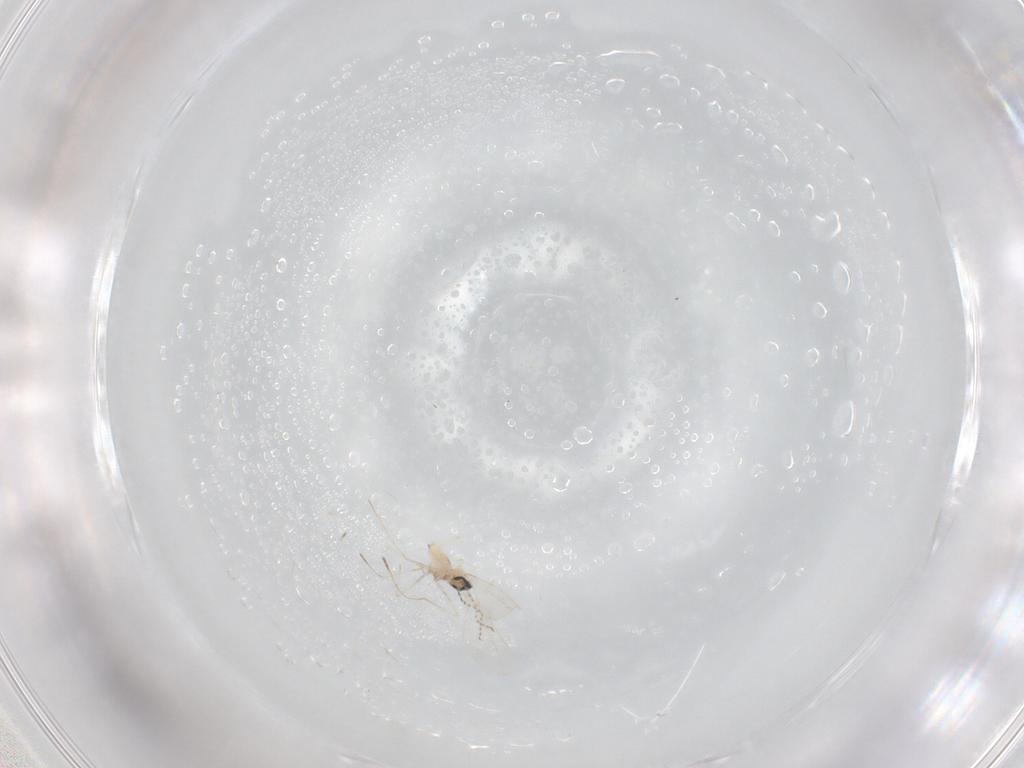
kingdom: Animalia
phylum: Arthropoda
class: Insecta
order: Diptera
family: Cecidomyiidae
